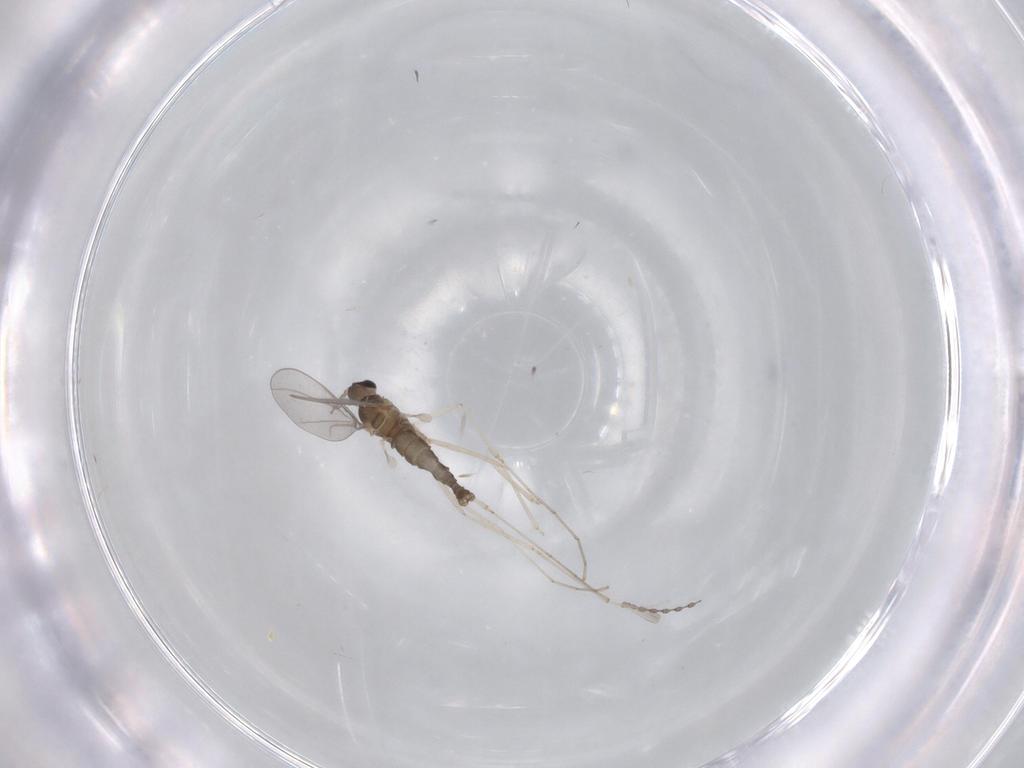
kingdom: Animalia
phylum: Arthropoda
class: Insecta
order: Diptera
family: Cecidomyiidae
